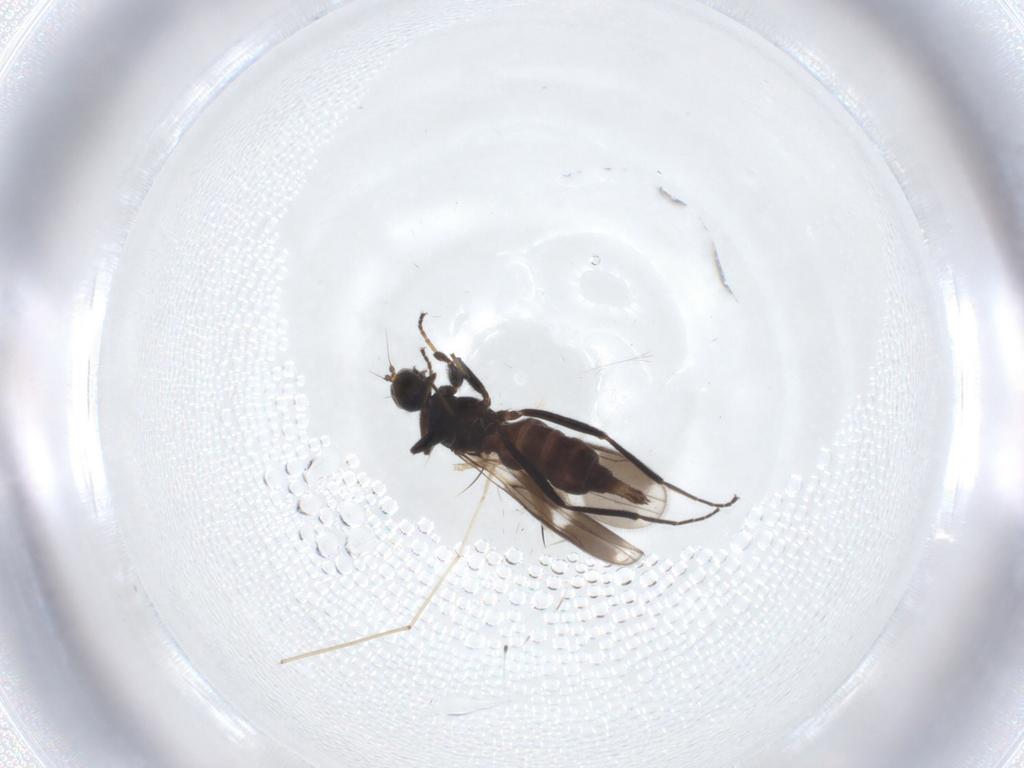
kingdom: Animalia
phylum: Arthropoda
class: Insecta
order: Diptera
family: Hybotidae
